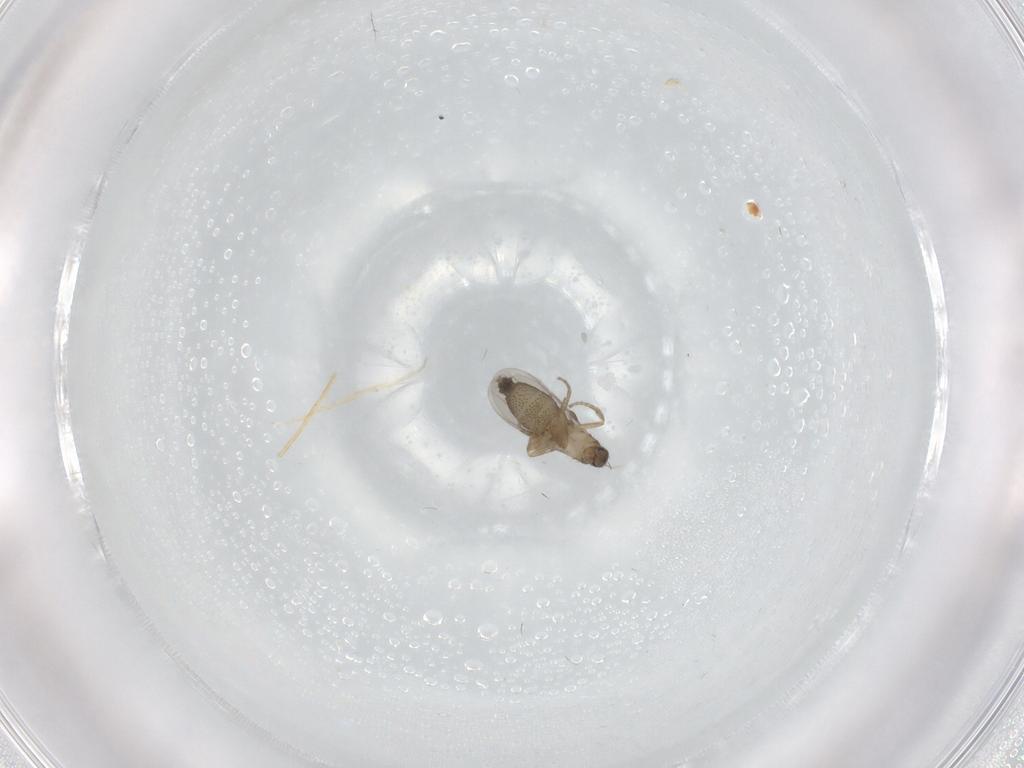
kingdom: Animalia
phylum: Arthropoda
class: Insecta
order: Diptera
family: Phoridae
